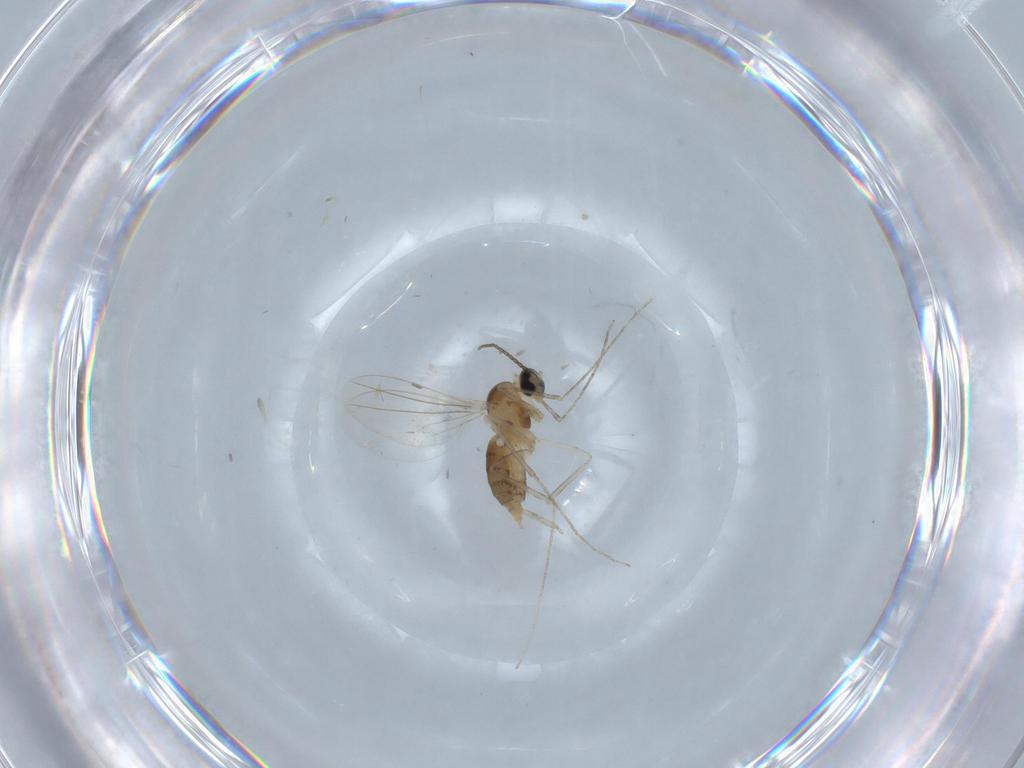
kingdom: Animalia
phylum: Arthropoda
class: Insecta
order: Diptera
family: Cecidomyiidae
